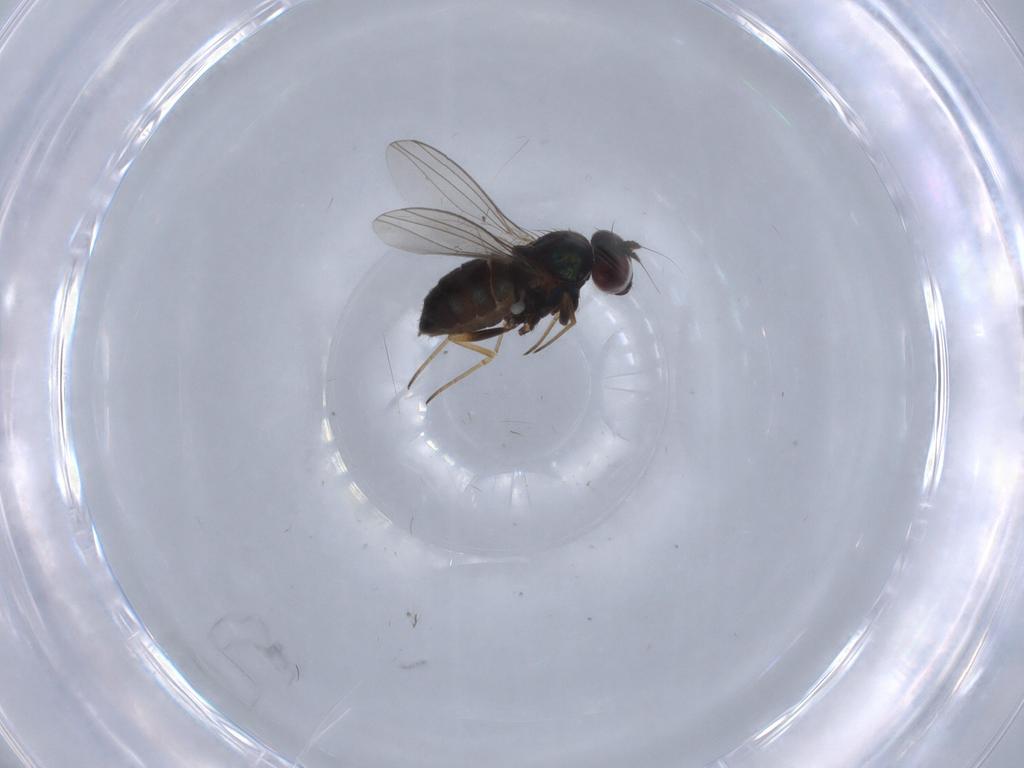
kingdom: Animalia
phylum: Arthropoda
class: Insecta
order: Diptera
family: Dolichopodidae
